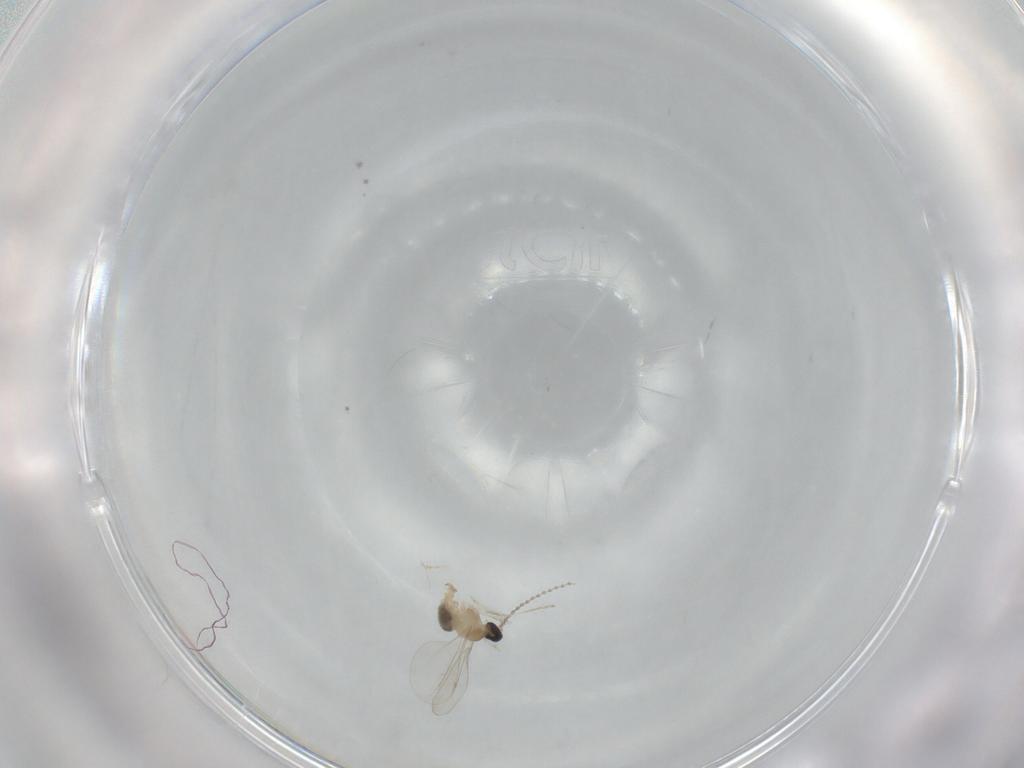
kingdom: Animalia
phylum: Arthropoda
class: Insecta
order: Diptera
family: Cecidomyiidae
